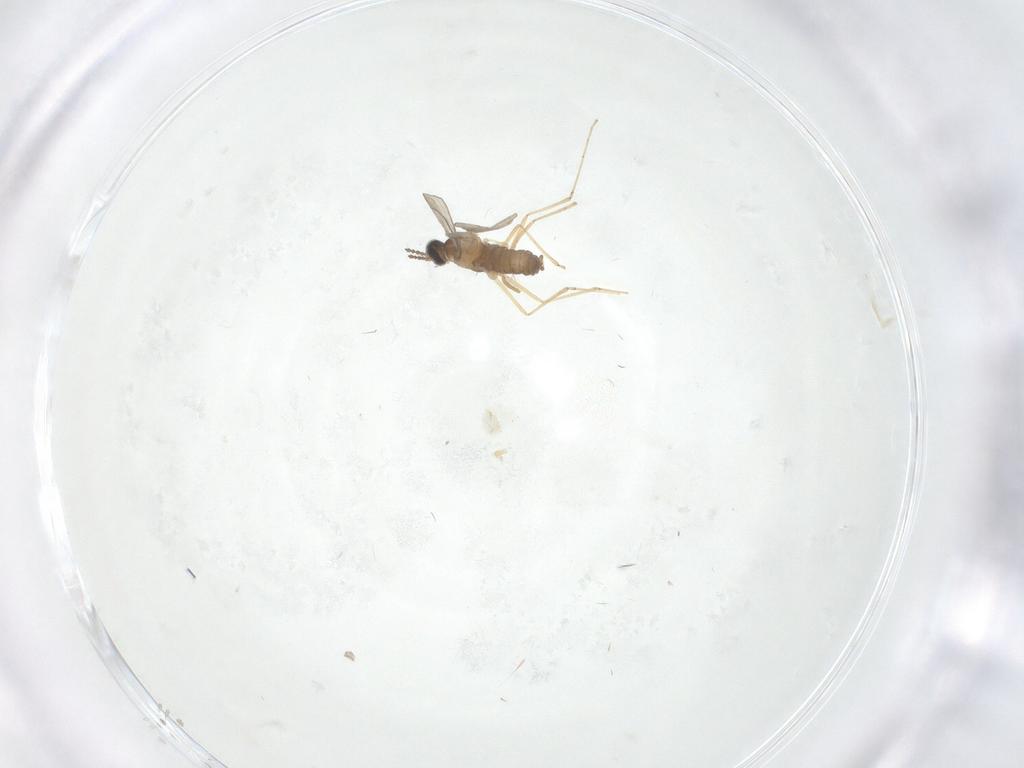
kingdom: Animalia
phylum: Arthropoda
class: Insecta
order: Diptera
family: Cecidomyiidae
